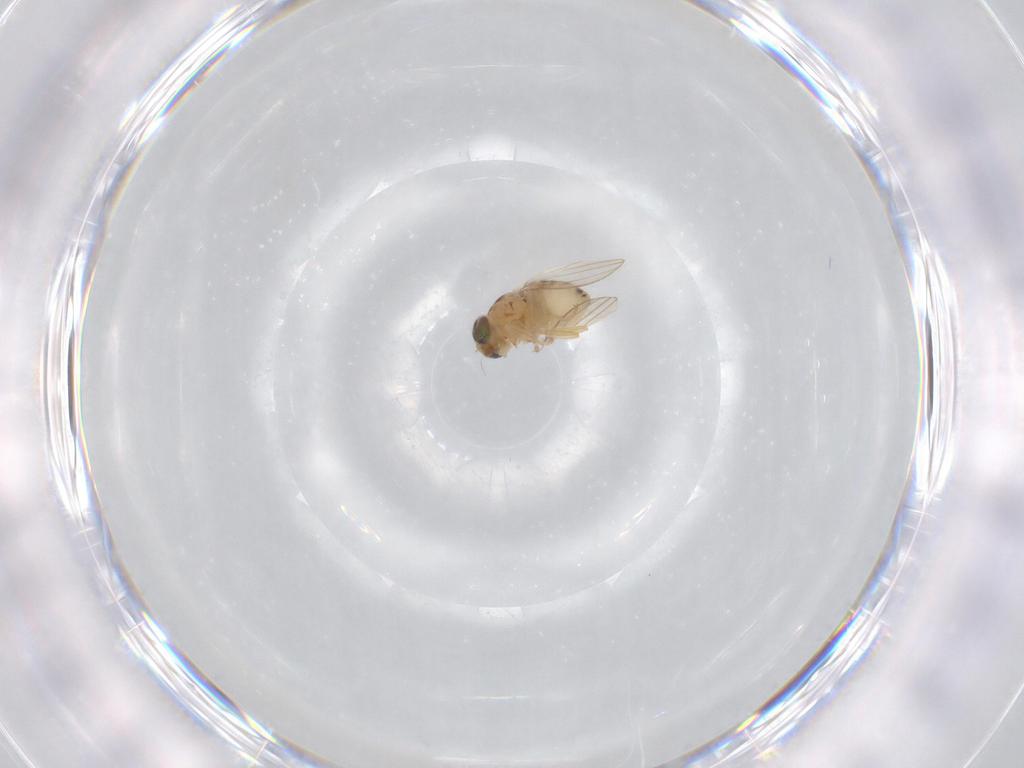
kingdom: Animalia
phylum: Arthropoda
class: Insecta
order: Diptera
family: Chyromyidae
